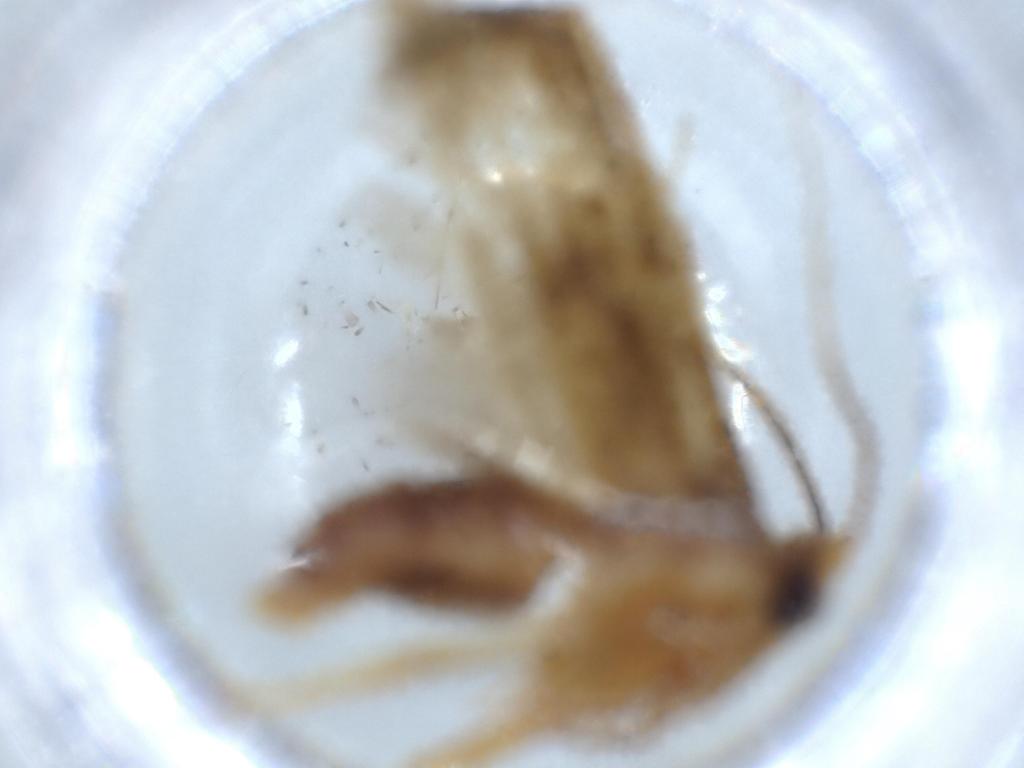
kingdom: Animalia
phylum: Arthropoda
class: Insecta
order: Lepidoptera
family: Blastobasidae
